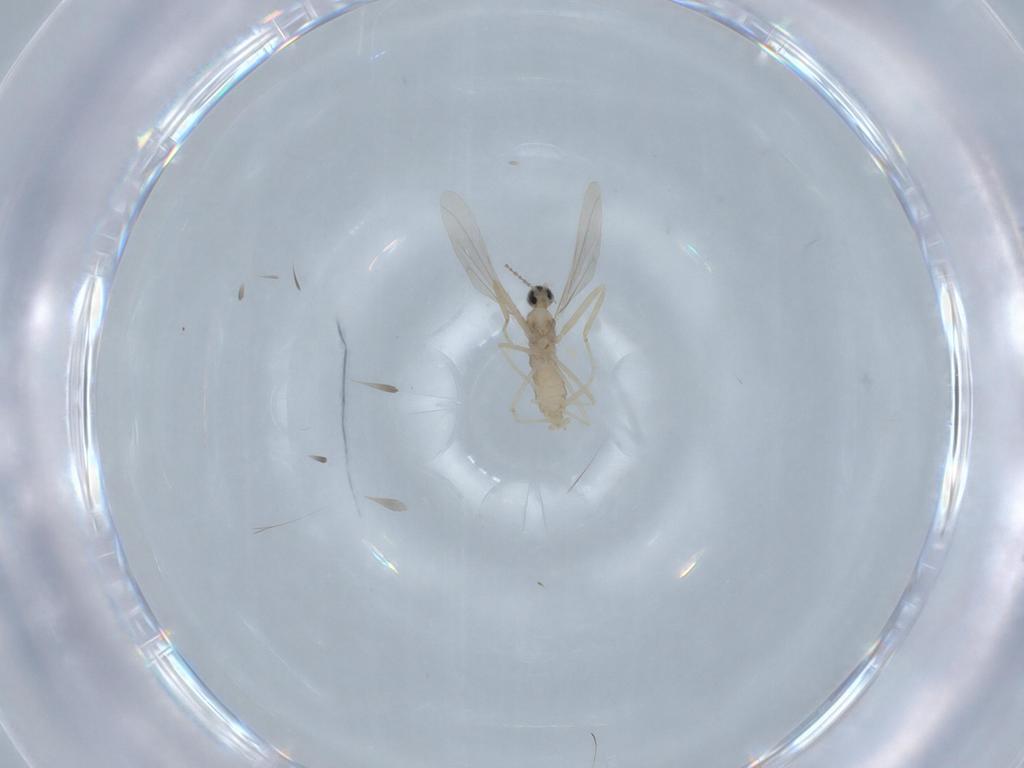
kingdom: Animalia
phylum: Arthropoda
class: Insecta
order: Diptera
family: Cecidomyiidae
